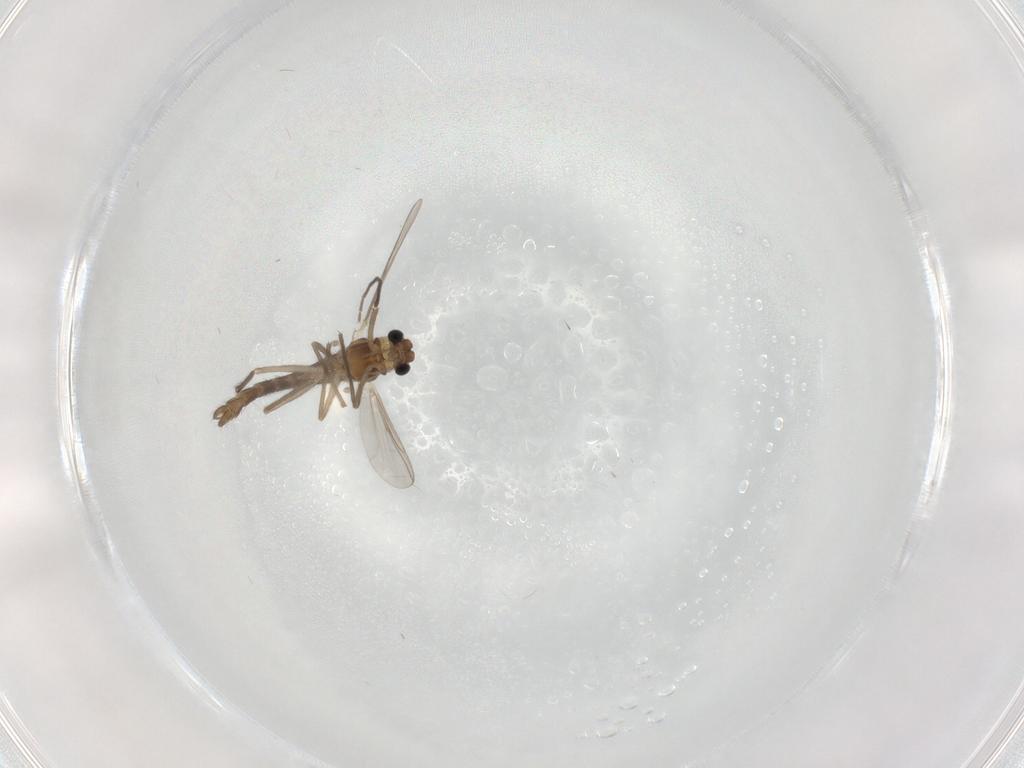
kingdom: Animalia
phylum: Arthropoda
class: Insecta
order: Diptera
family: Chironomidae
